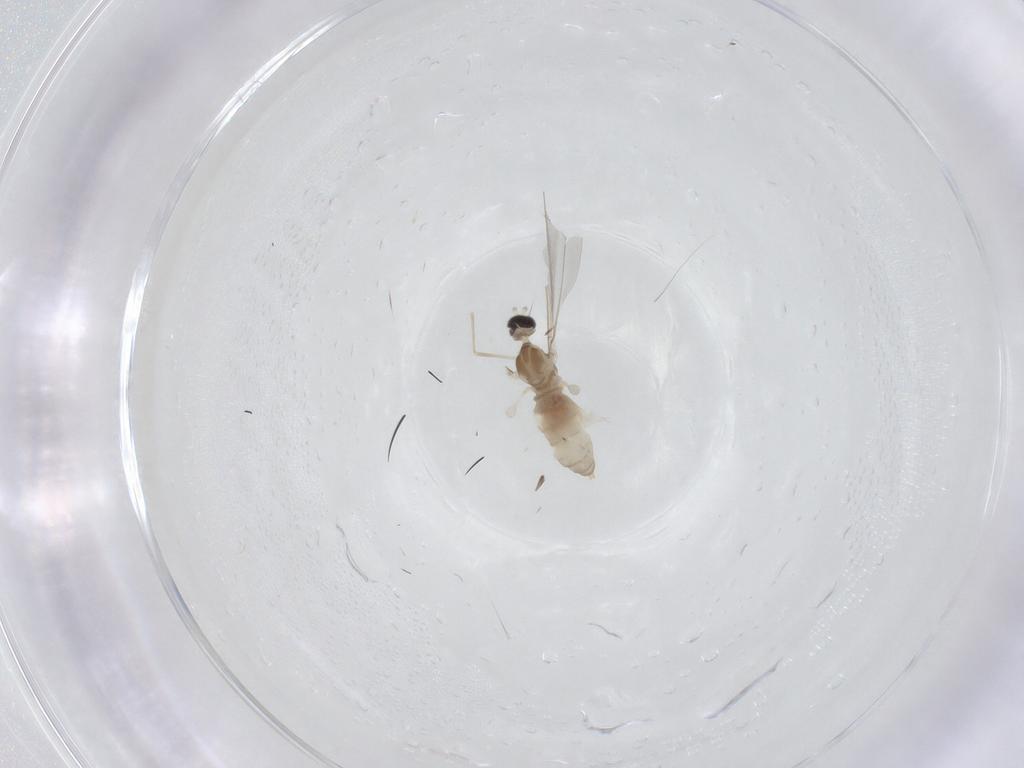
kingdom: Animalia
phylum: Arthropoda
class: Insecta
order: Diptera
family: Cecidomyiidae
